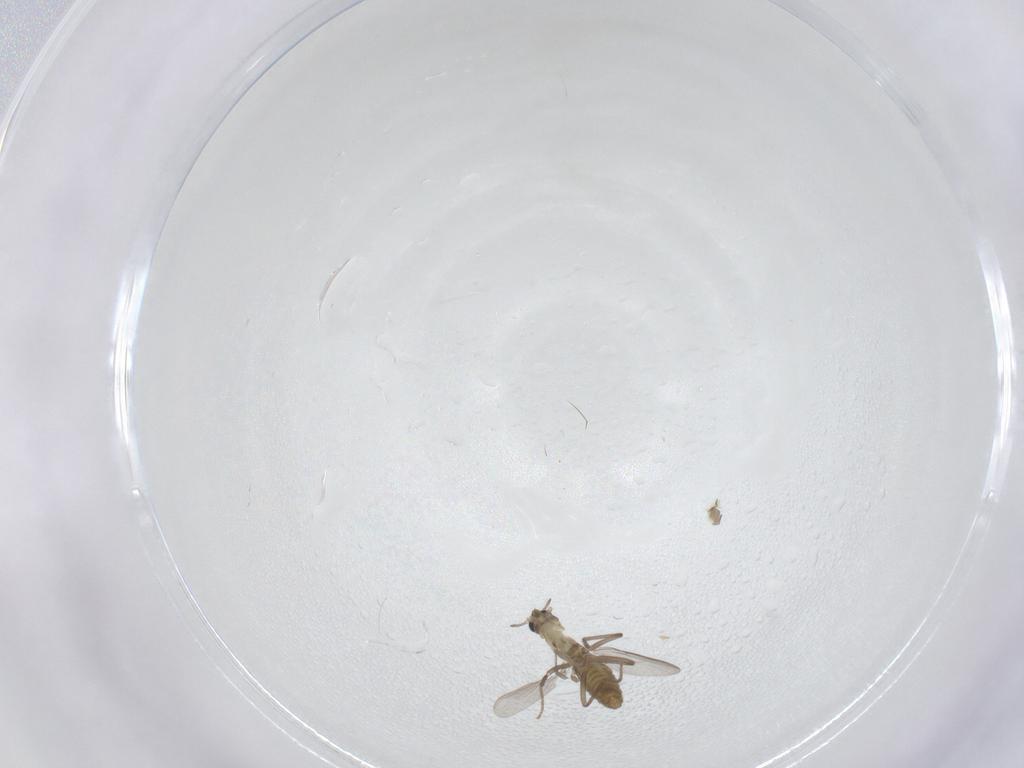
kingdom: Animalia
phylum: Arthropoda
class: Insecta
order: Diptera
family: Chironomidae
